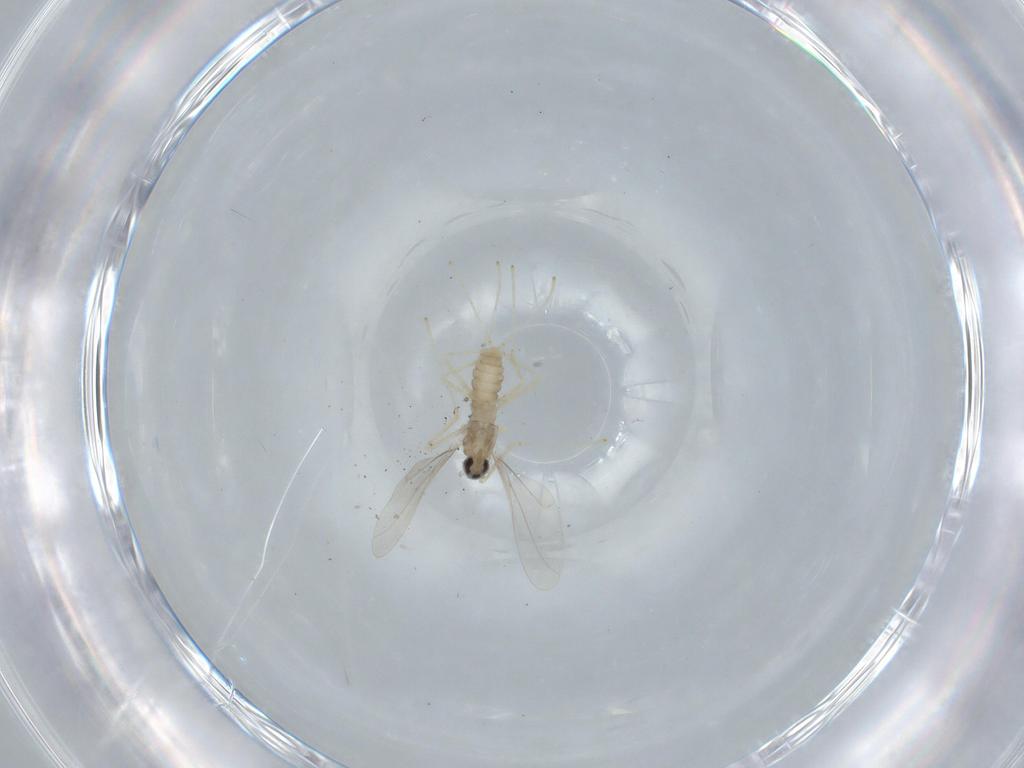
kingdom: Animalia
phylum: Arthropoda
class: Insecta
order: Diptera
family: Cecidomyiidae
